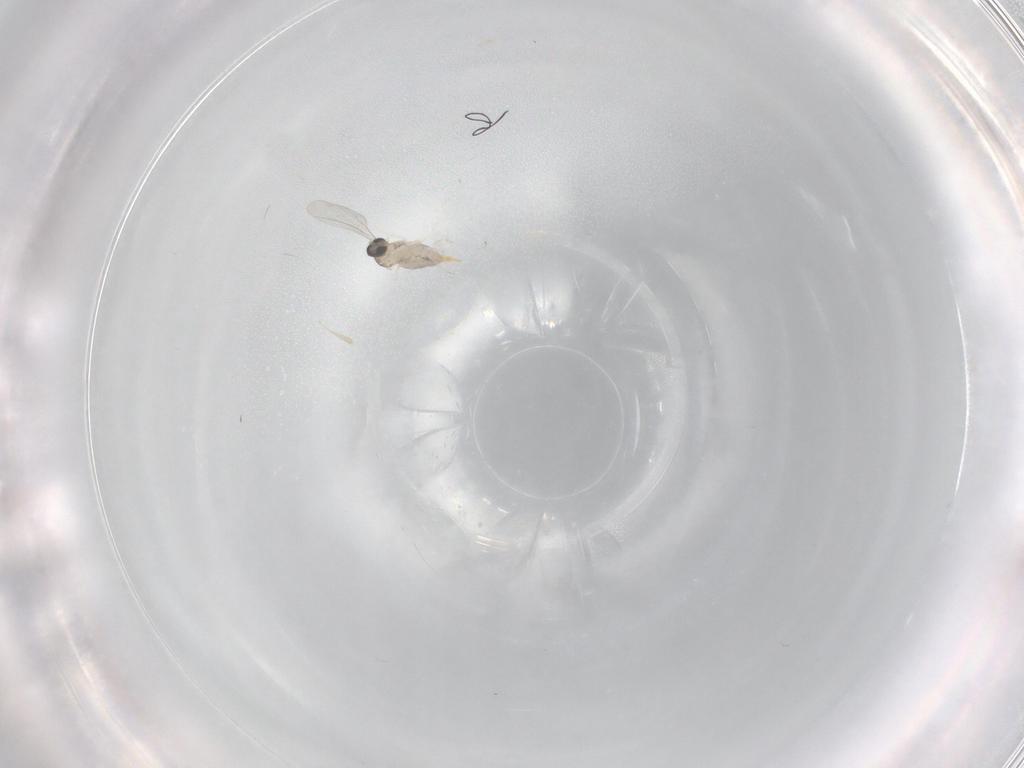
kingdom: Animalia
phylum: Arthropoda
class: Insecta
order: Diptera
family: Cecidomyiidae
